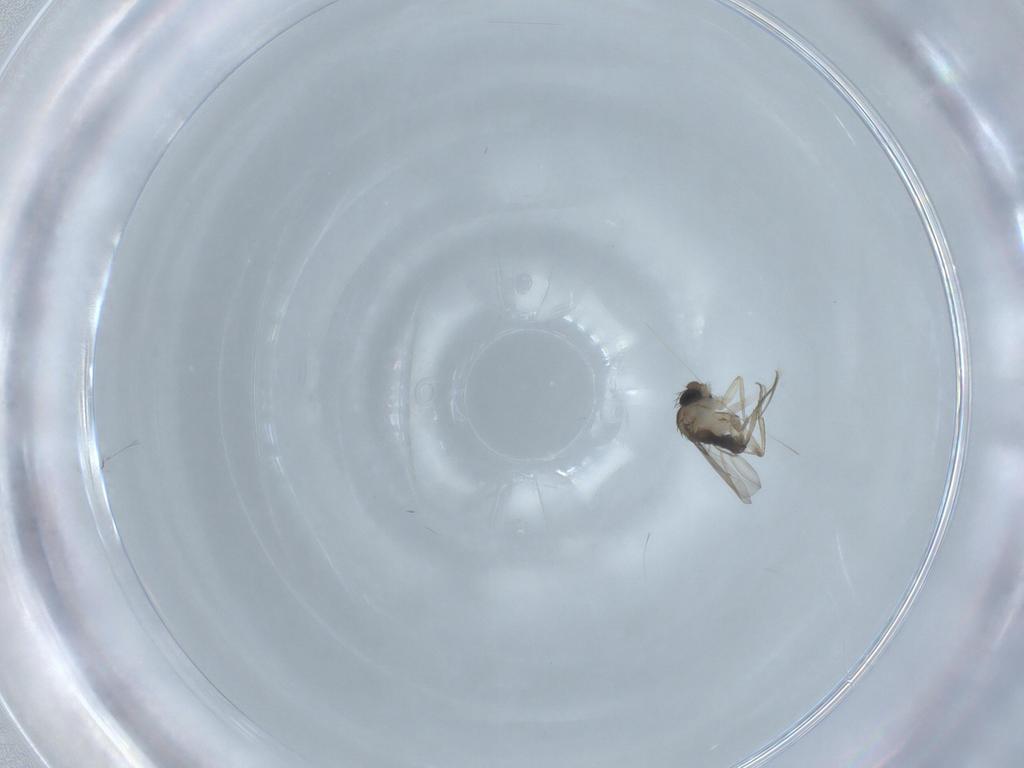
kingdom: Animalia
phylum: Arthropoda
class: Insecta
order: Diptera
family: Phoridae
